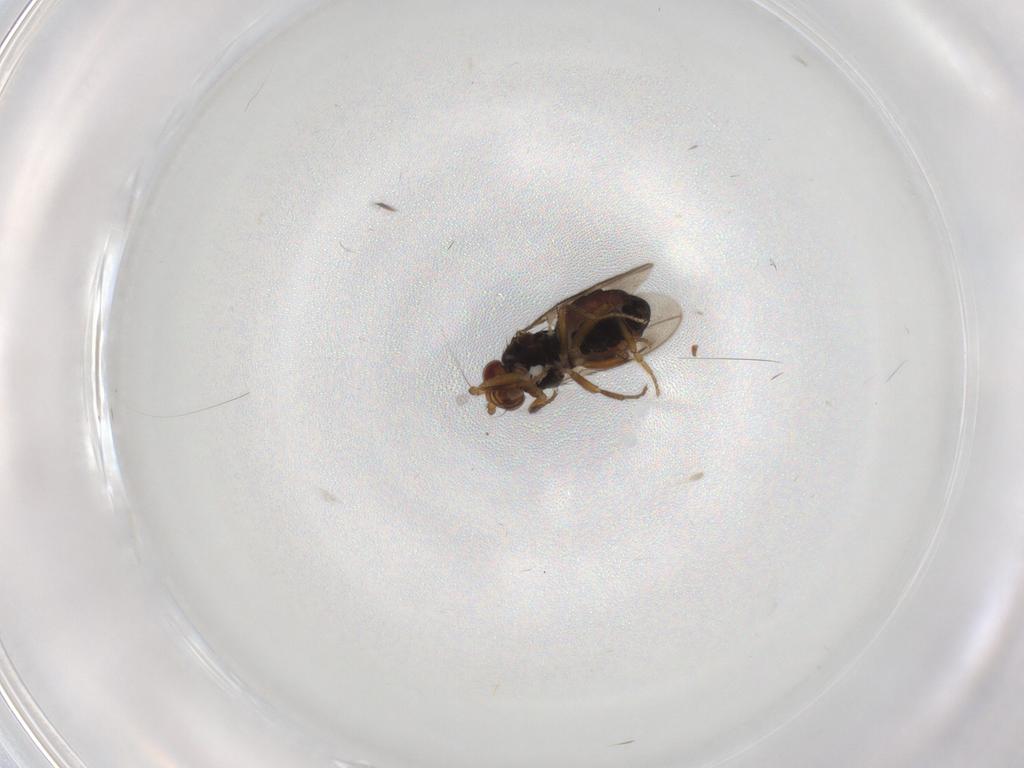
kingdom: Animalia
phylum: Arthropoda
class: Insecta
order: Diptera
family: Sphaeroceridae
